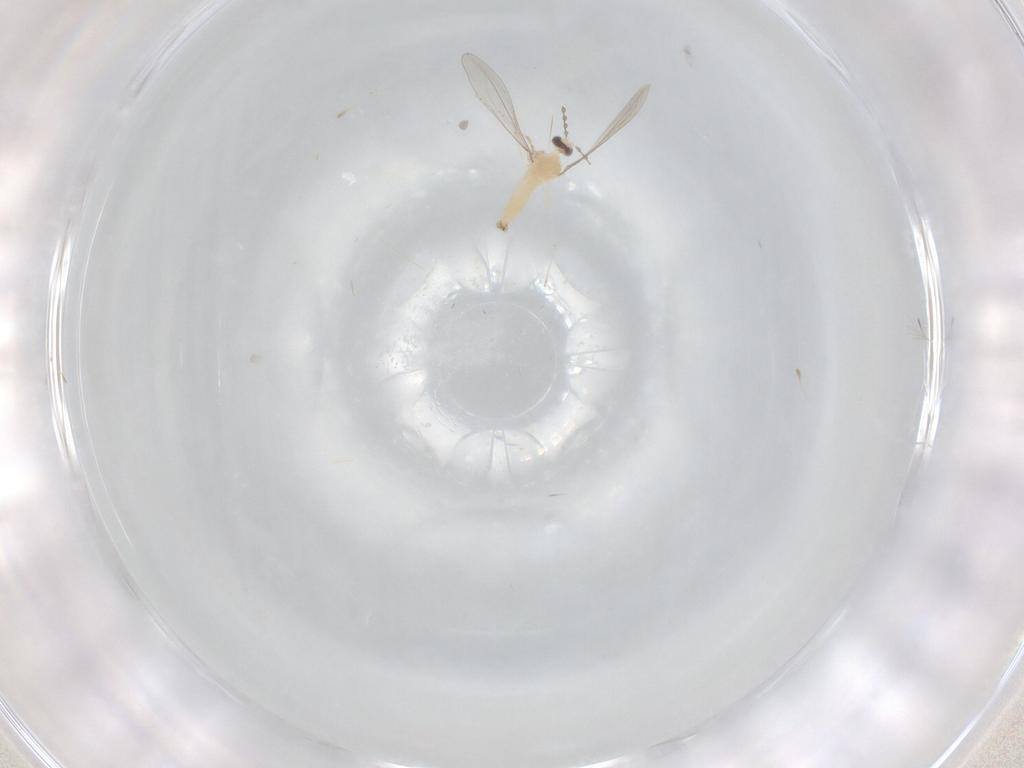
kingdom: Animalia
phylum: Arthropoda
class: Insecta
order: Diptera
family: Cecidomyiidae
